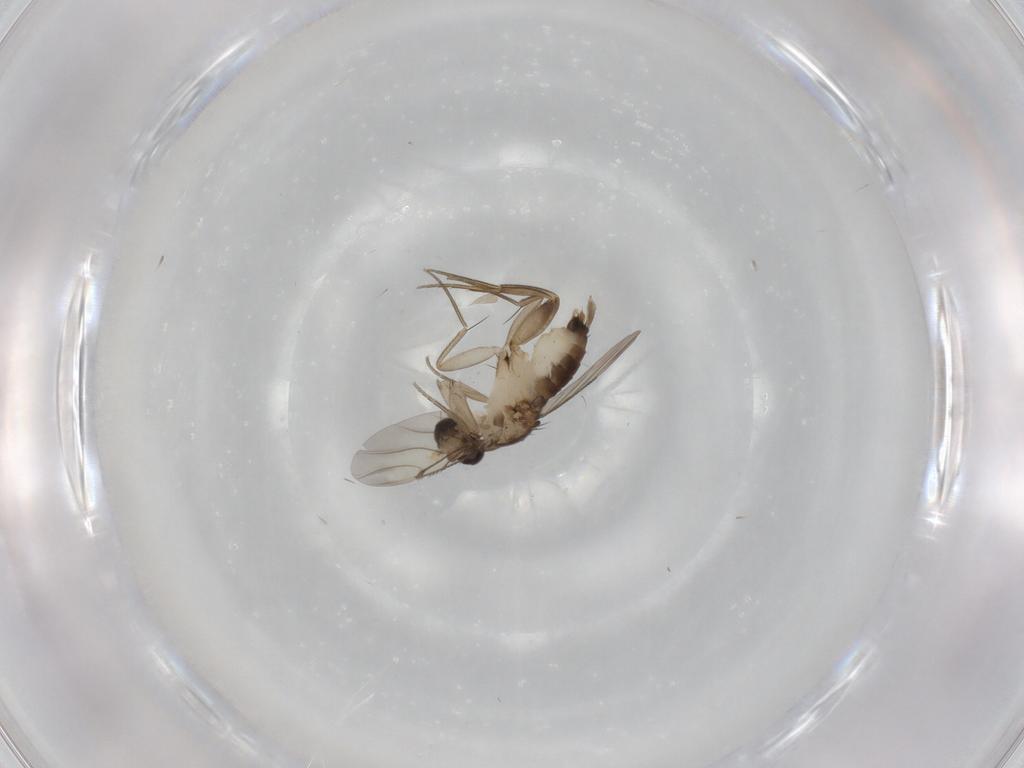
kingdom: Animalia
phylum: Arthropoda
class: Insecta
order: Diptera
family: Phoridae
